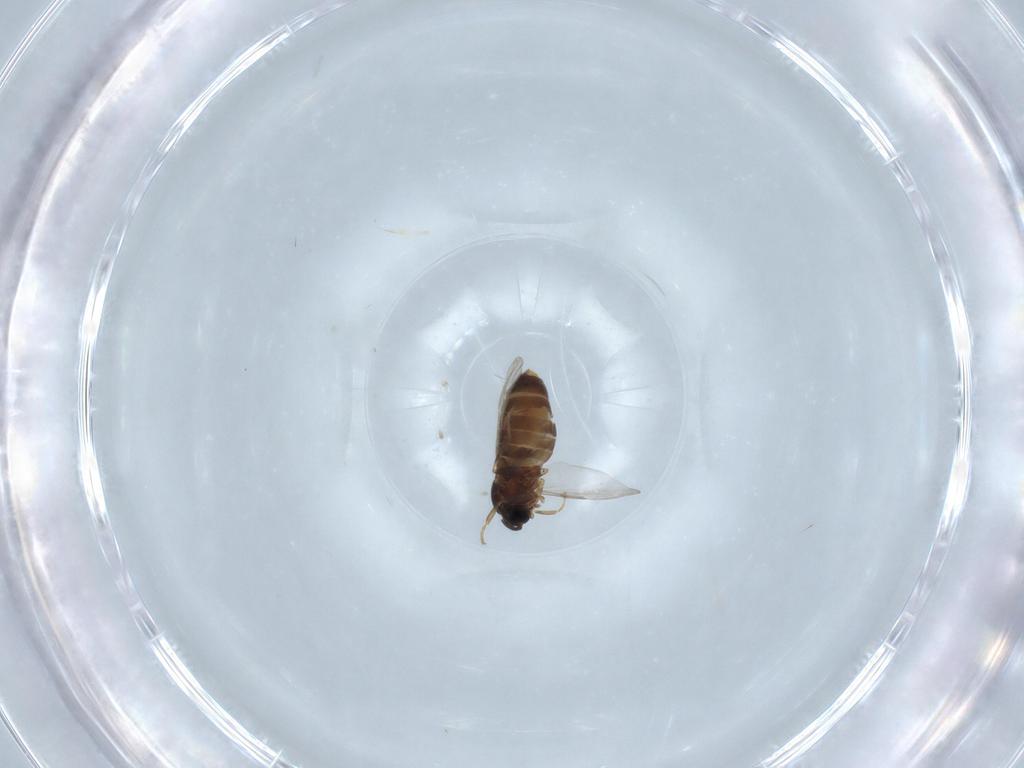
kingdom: Animalia
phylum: Arthropoda
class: Insecta
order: Diptera
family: Scatopsidae
